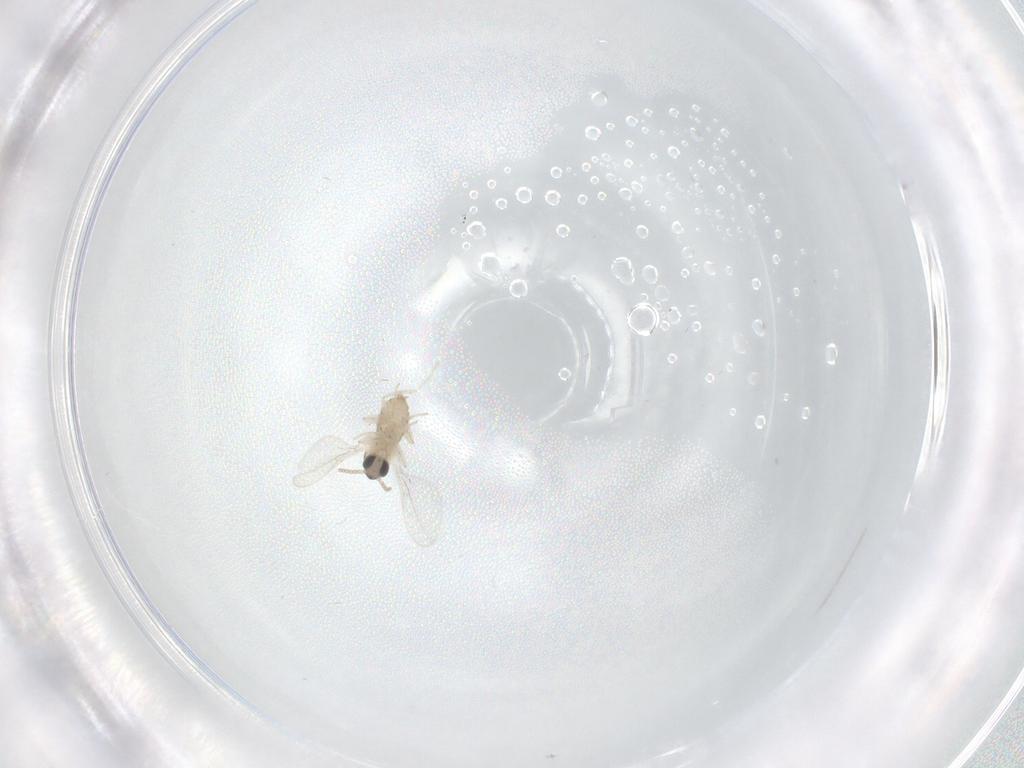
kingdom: Animalia
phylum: Arthropoda
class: Insecta
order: Diptera
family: Cecidomyiidae
